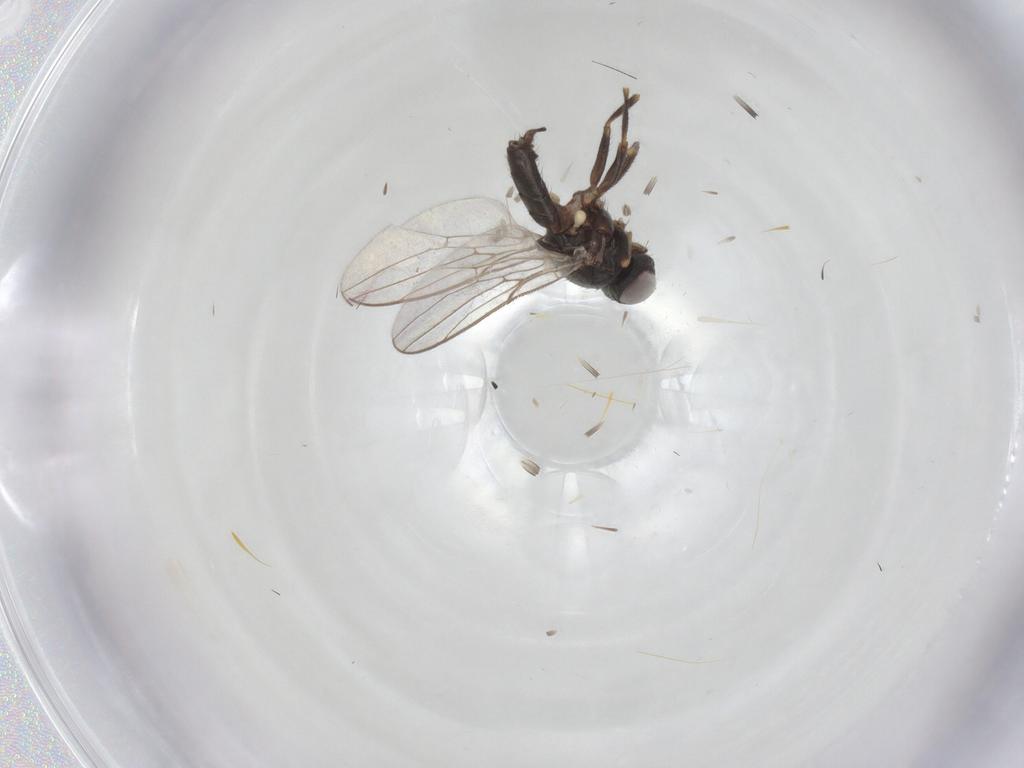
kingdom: Animalia
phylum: Arthropoda
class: Insecta
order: Diptera
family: Chloropidae
